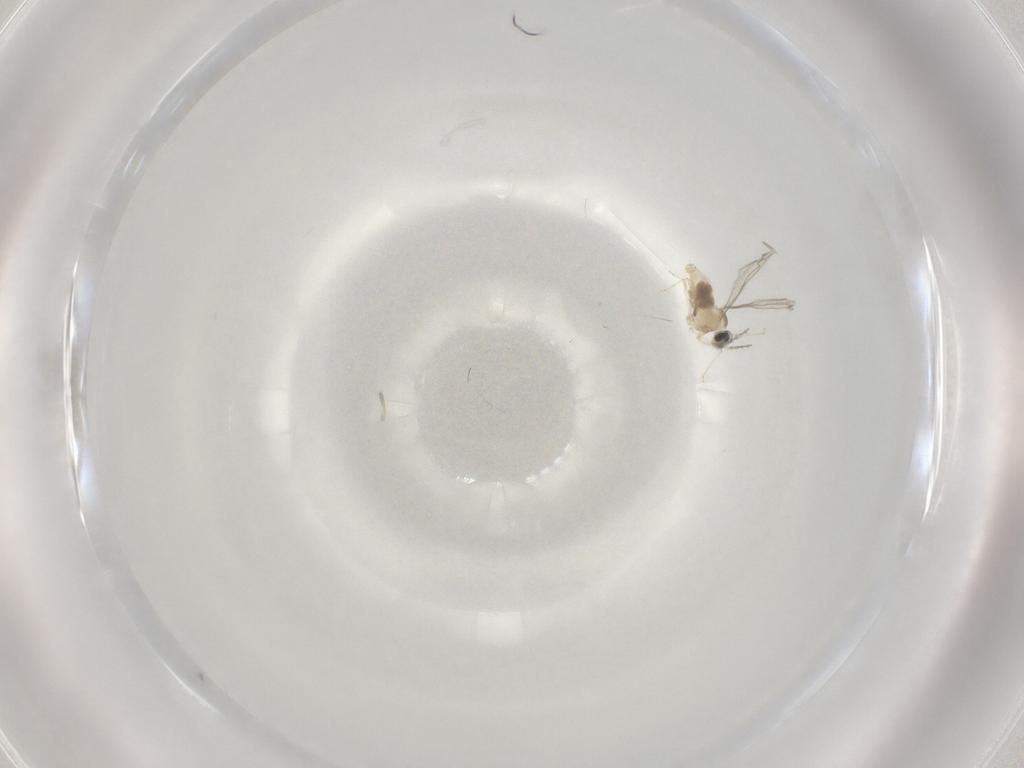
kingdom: Animalia
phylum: Arthropoda
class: Insecta
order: Diptera
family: Cecidomyiidae
